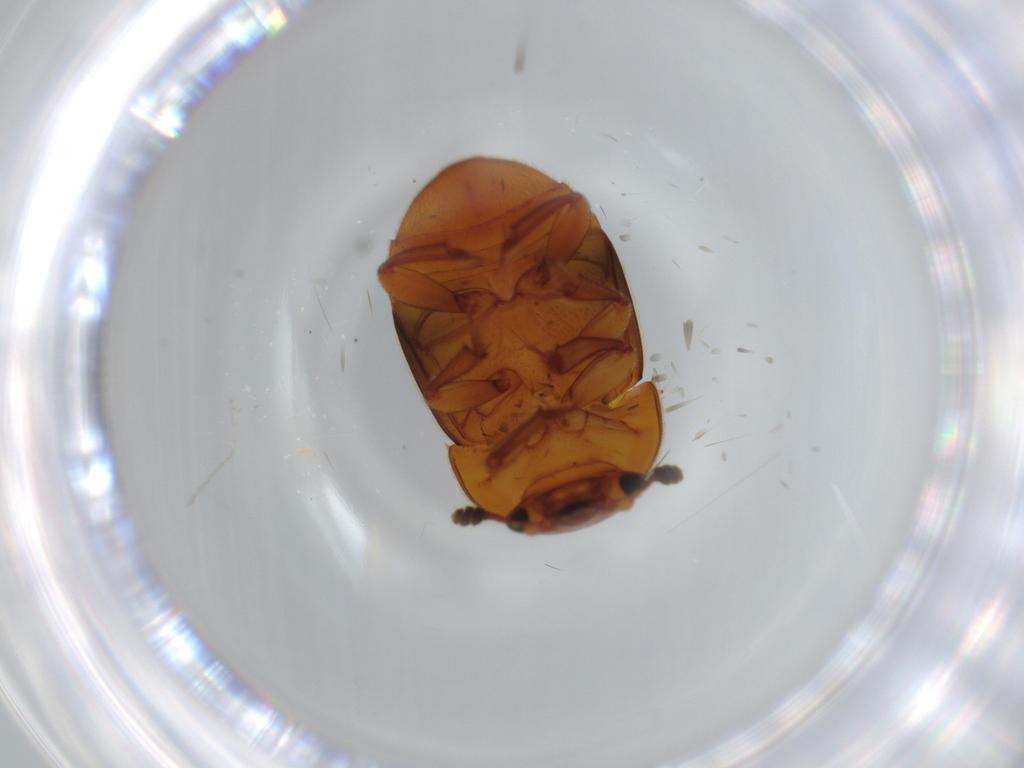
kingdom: Animalia
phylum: Arthropoda
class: Insecta
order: Coleoptera
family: Nitidulidae
